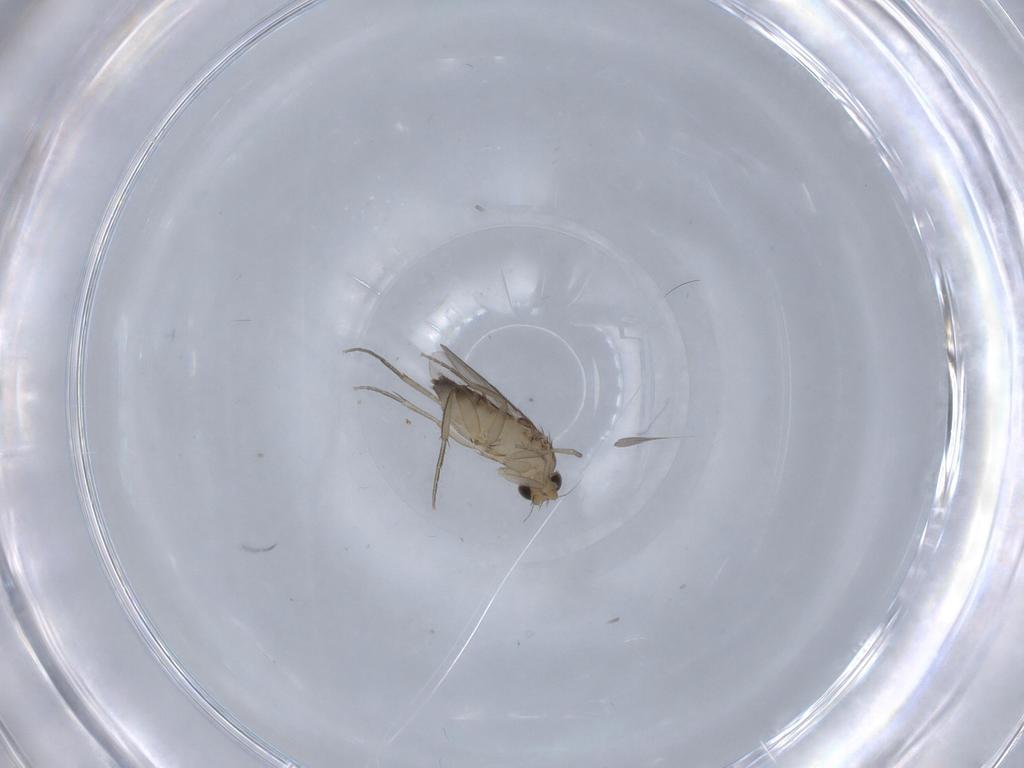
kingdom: Animalia
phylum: Arthropoda
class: Insecta
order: Diptera
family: Phoridae
